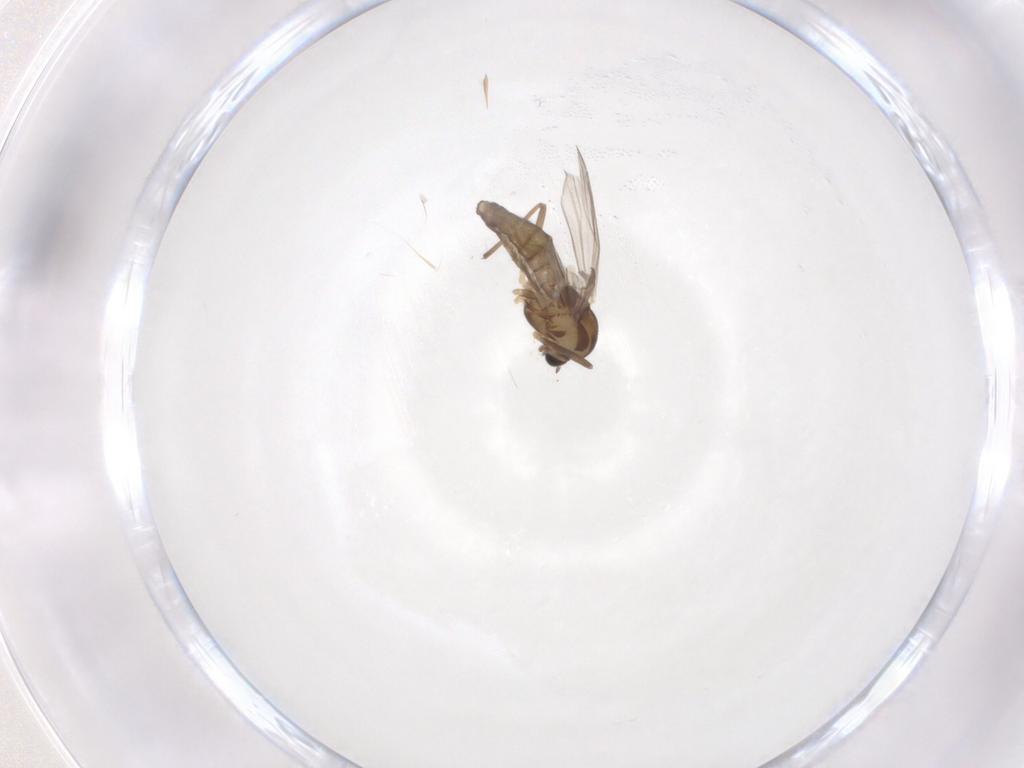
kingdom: Animalia
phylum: Arthropoda
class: Insecta
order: Diptera
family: Chironomidae
